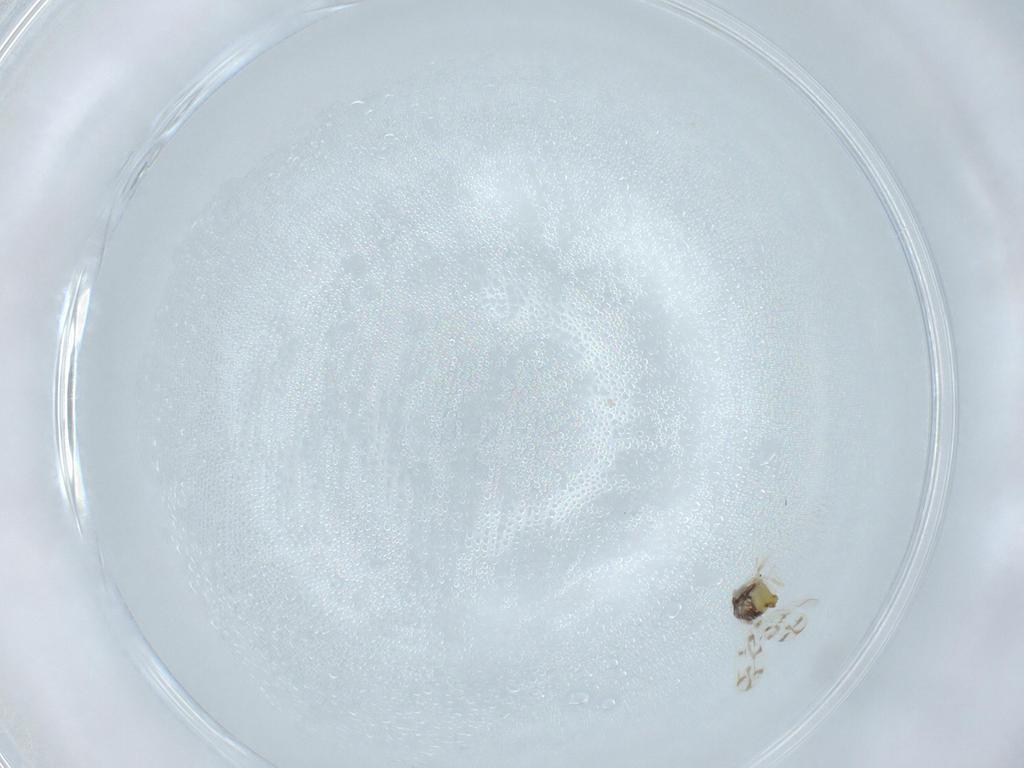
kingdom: Animalia
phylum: Arthropoda
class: Insecta
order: Hemiptera
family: Aleyrodidae
